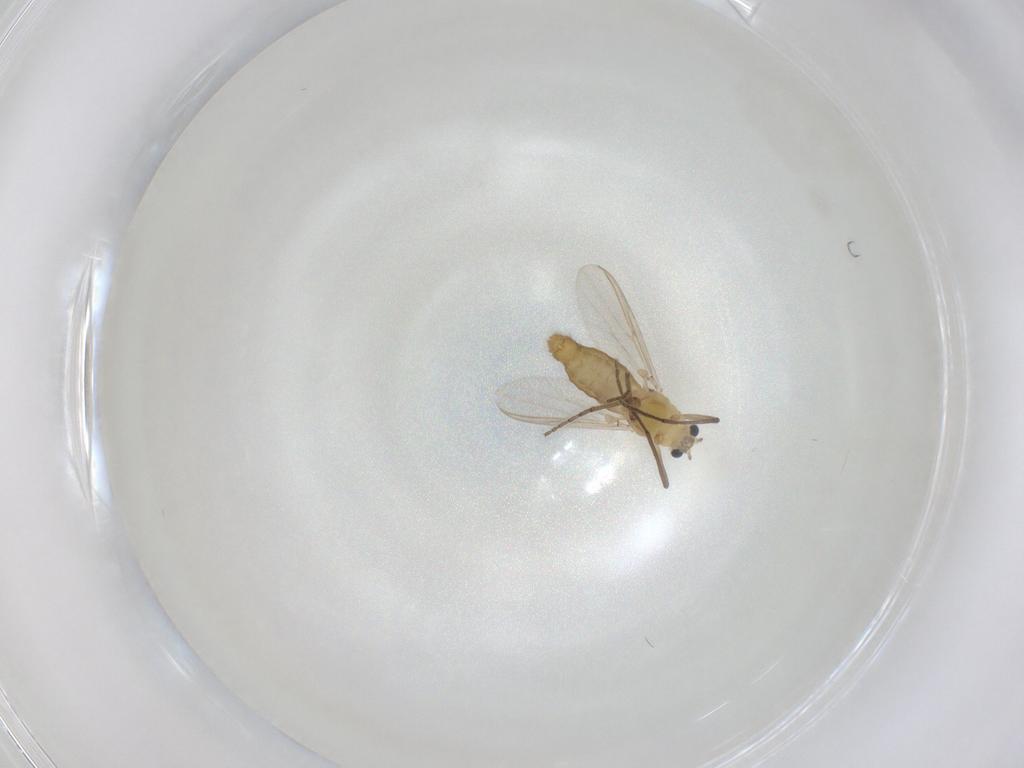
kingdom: Animalia
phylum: Arthropoda
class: Insecta
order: Diptera
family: Chironomidae
